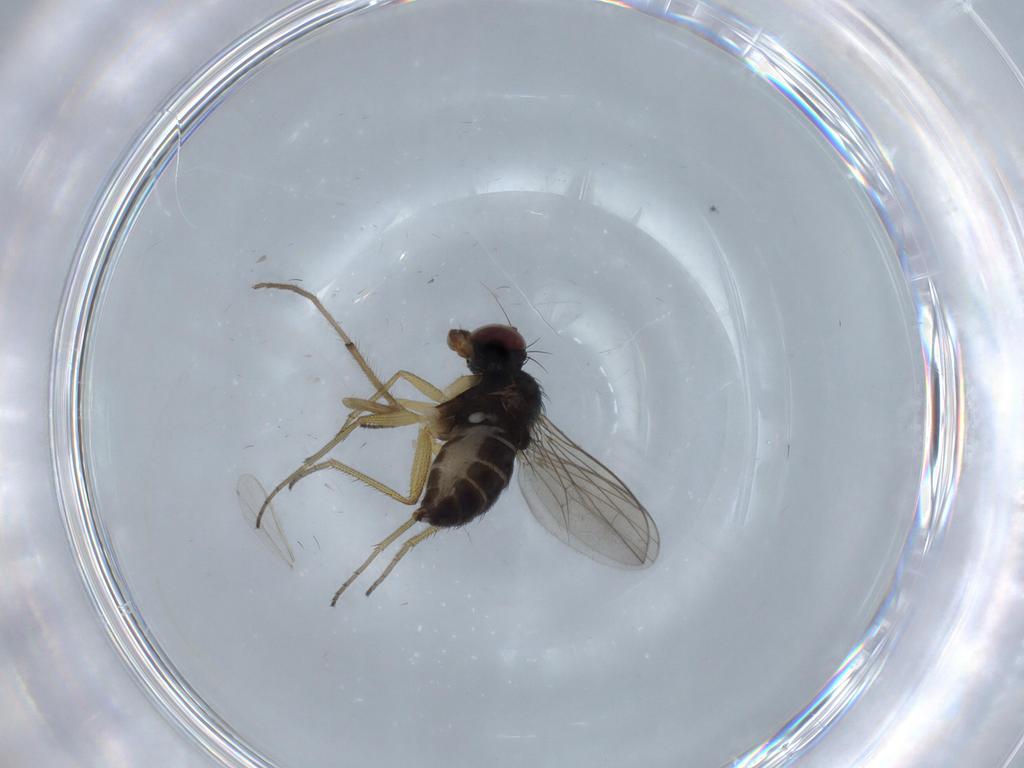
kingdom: Animalia
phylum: Arthropoda
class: Insecta
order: Diptera
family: Dolichopodidae
